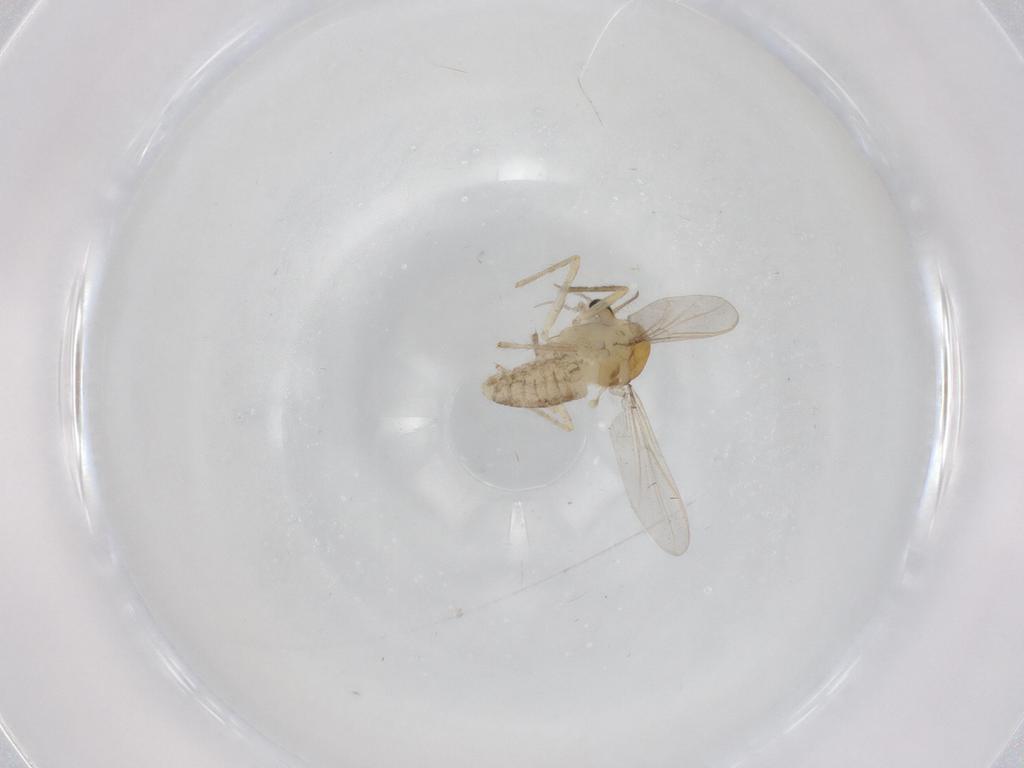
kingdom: Animalia
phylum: Arthropoda
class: Insecta
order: Diptera
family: Chironomidae
